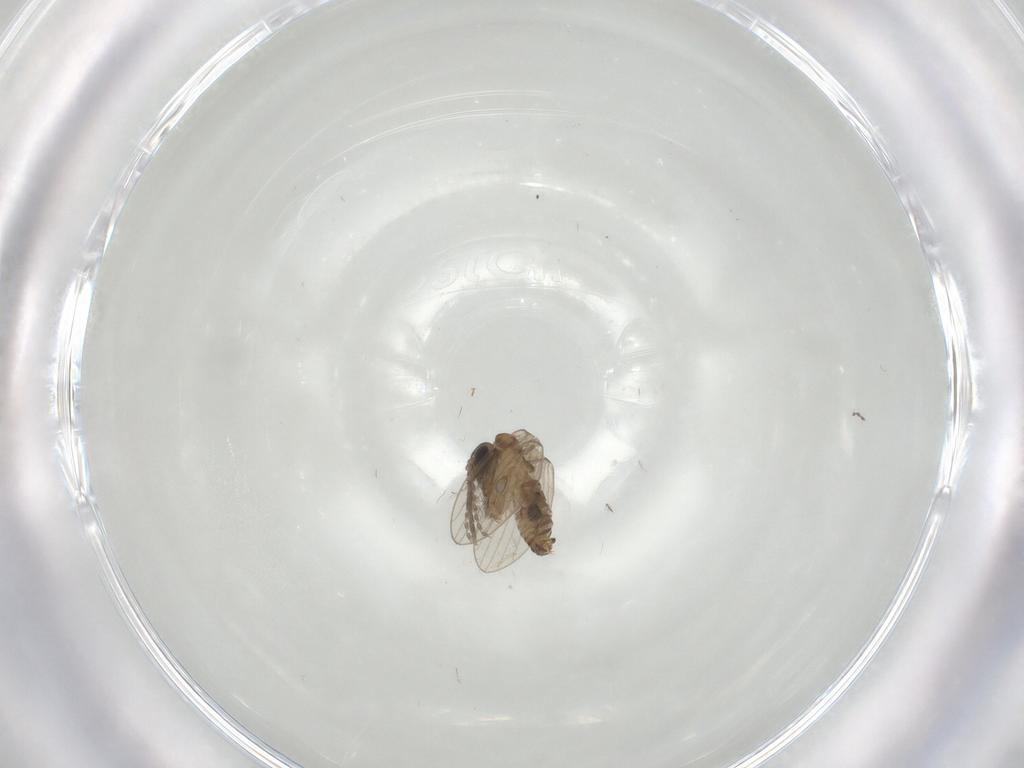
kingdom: Animalia
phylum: Arthropoda
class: Insecta
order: Diptera
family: Cecidomyiidae
